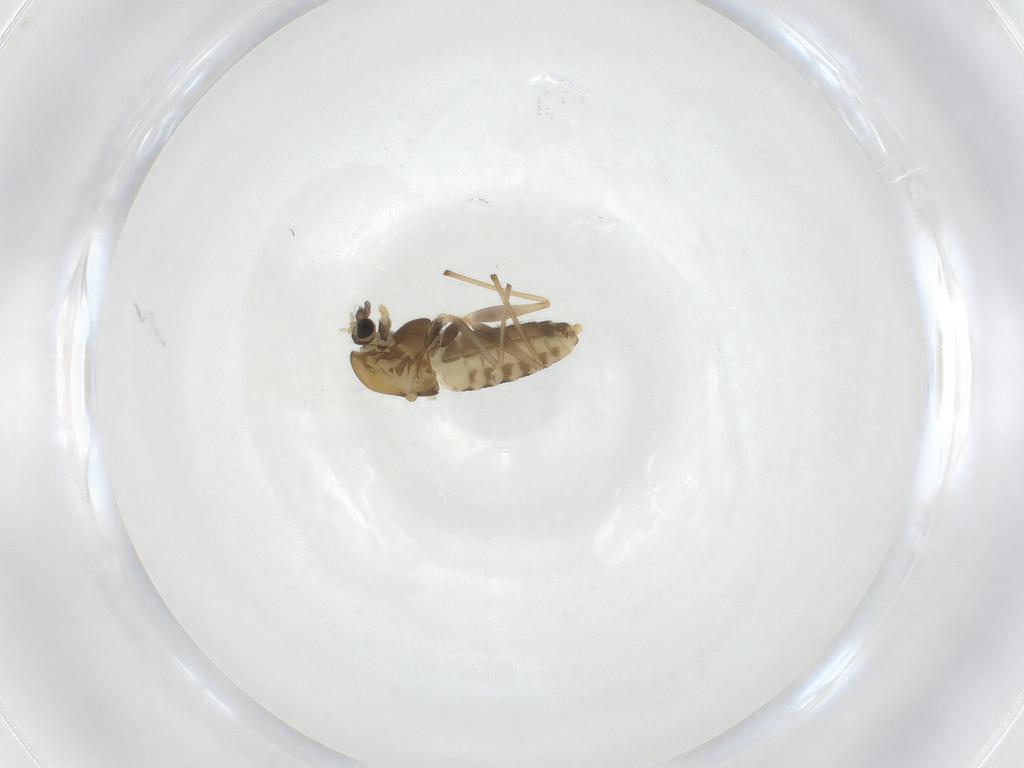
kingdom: Animalia
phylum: Arthropoda
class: Insecta
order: Diptera
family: Chironomidae
